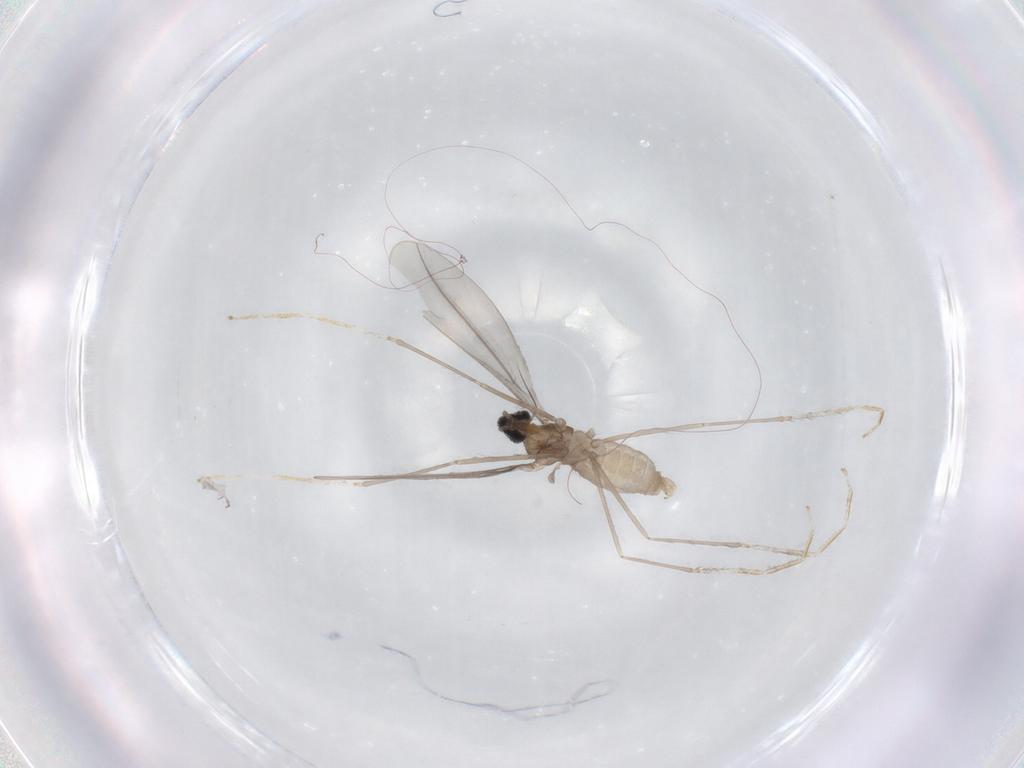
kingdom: Animalia
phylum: Arthropoda
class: Insecta
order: Diptera
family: Cecidomyiidae
